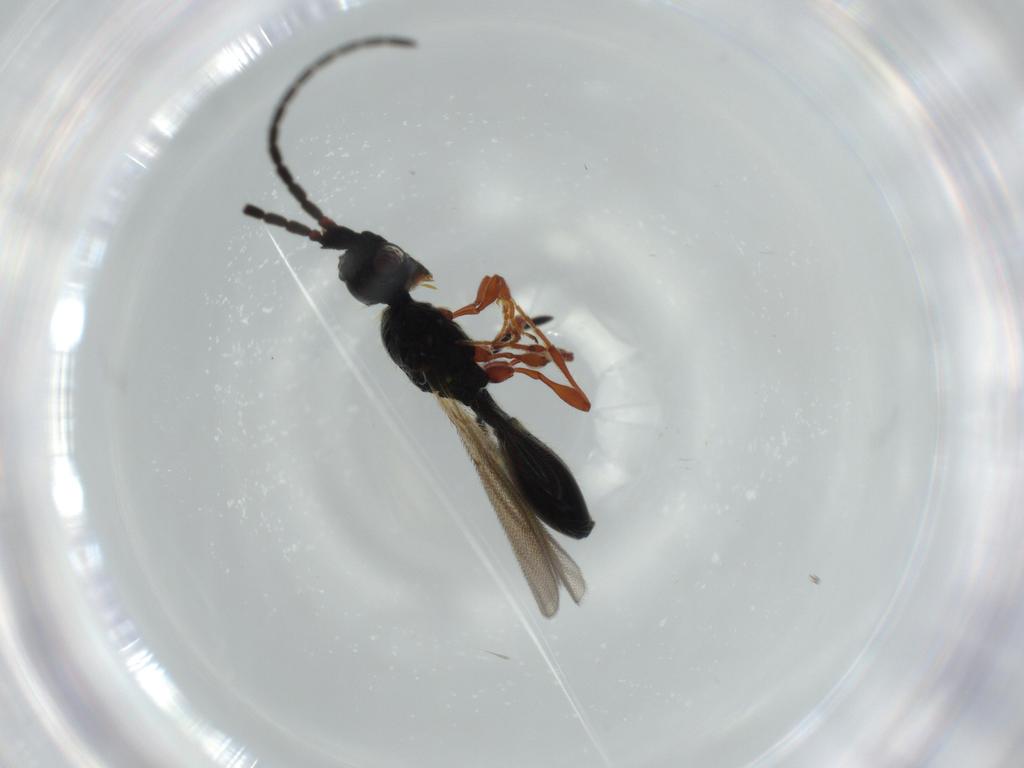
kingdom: Animalia
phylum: Arthropoda
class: Insecta
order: Hymenoptera
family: Diapriidae
